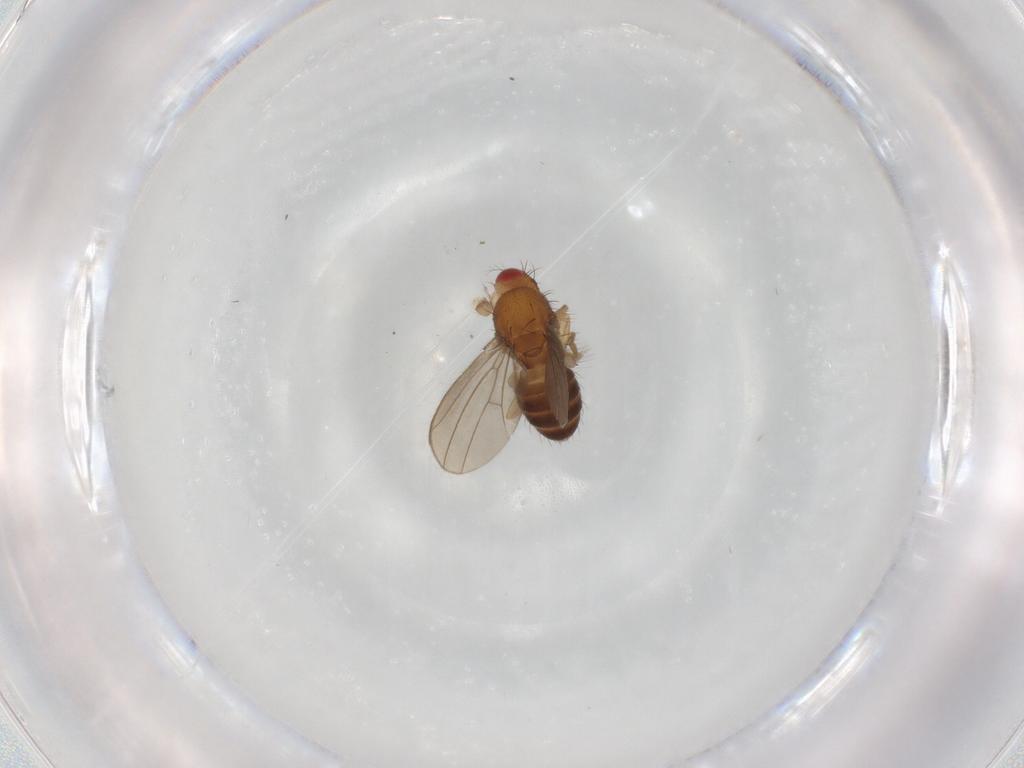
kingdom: Animalia
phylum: Arthropoda
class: Insecta
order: Diptera
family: Drosophilidae
